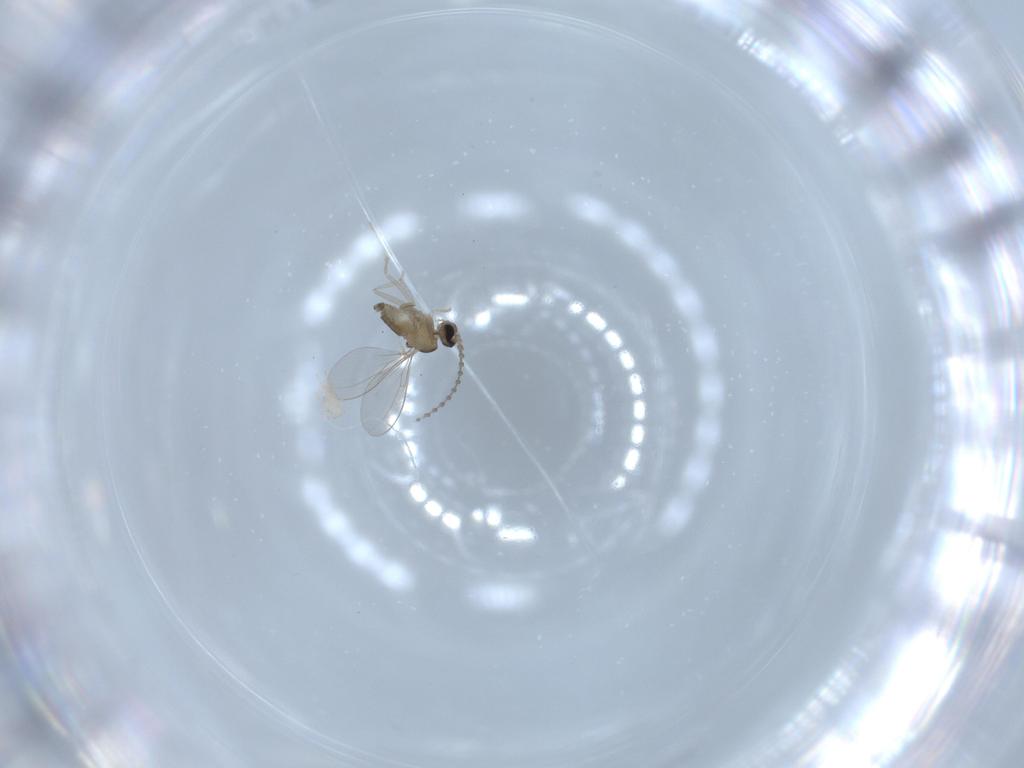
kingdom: Animalia
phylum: Arthropoda
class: Insecta
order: Diptera
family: Cecidomyiidae
